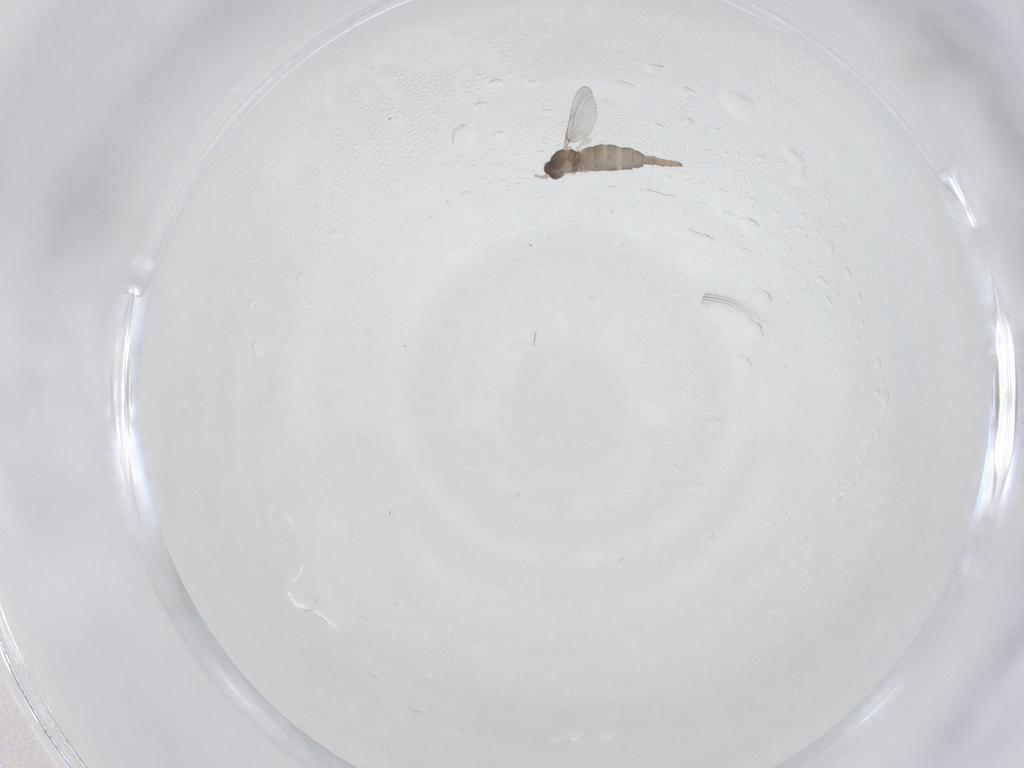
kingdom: Animalia
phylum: Arthropoda
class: Insecta
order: Diptera
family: Cecidomyiidae
